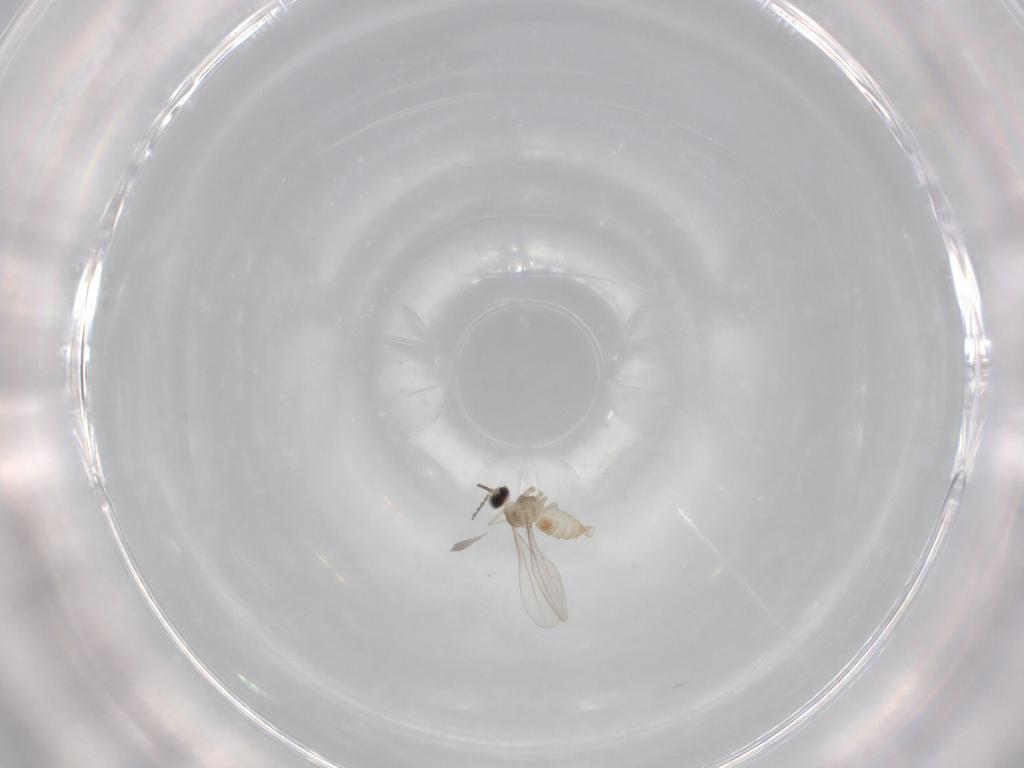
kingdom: Animalia
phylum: Arthropoda
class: Insecta
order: Diptera
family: Cecidomyiidae
